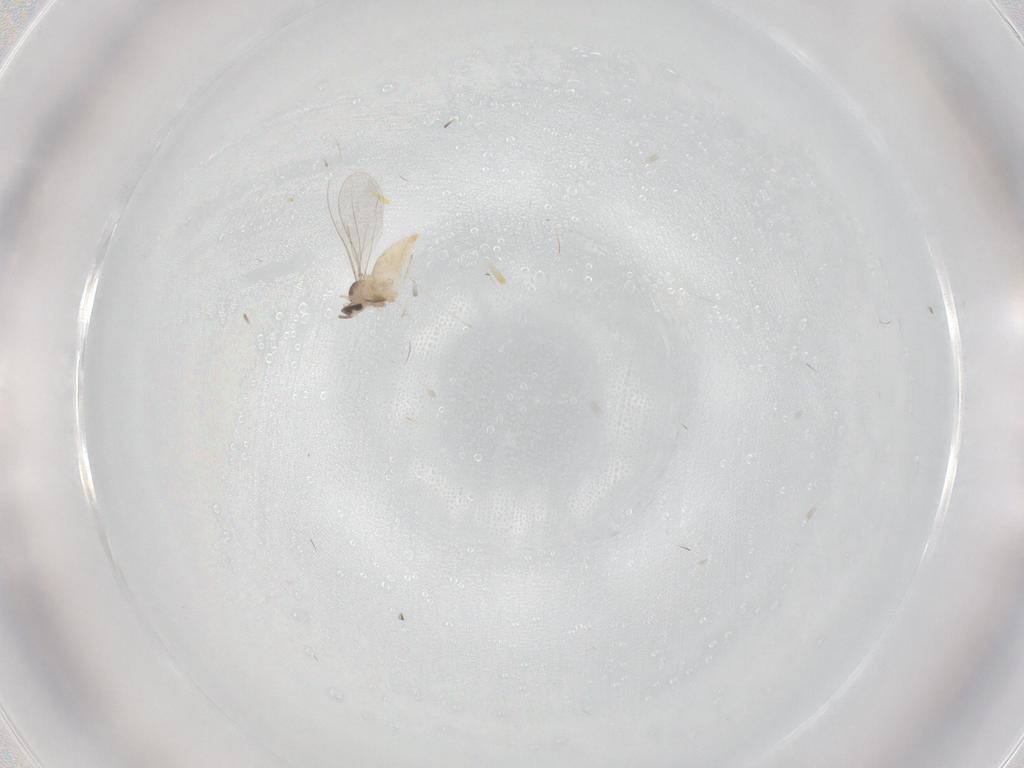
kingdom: Animalia
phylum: Arthropoda
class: Insecta
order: Diptera
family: Cecidomyiidae
